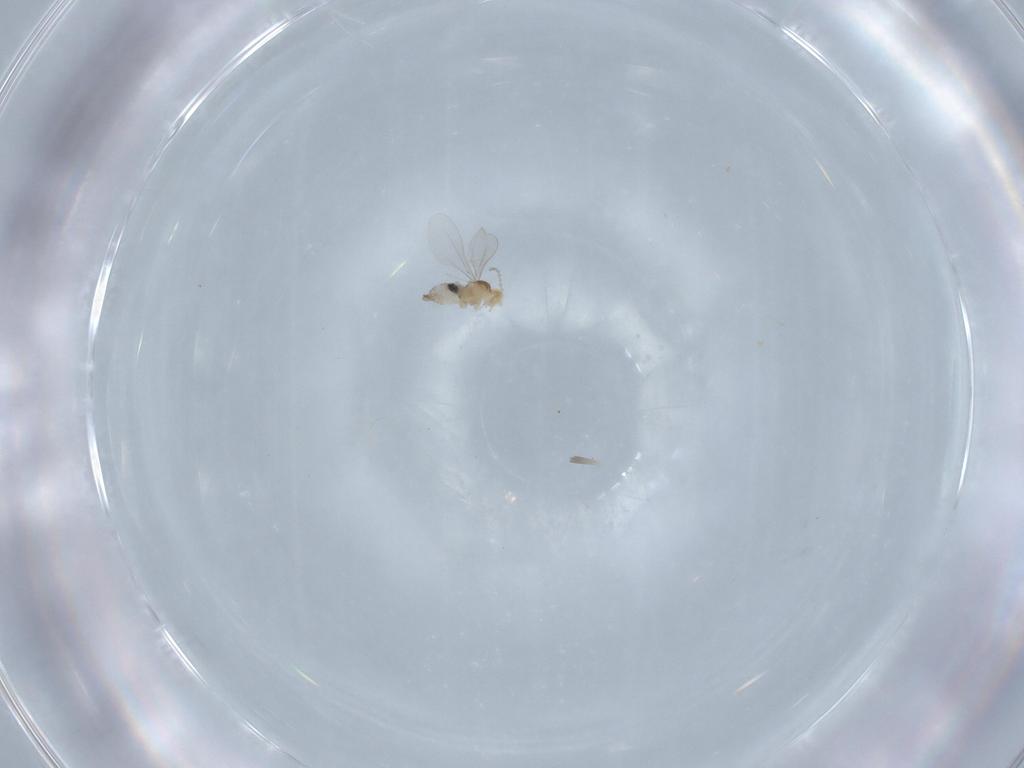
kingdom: Animalia
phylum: Arthropoda
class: Insecta
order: Diptera
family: Cecidomyiidae
